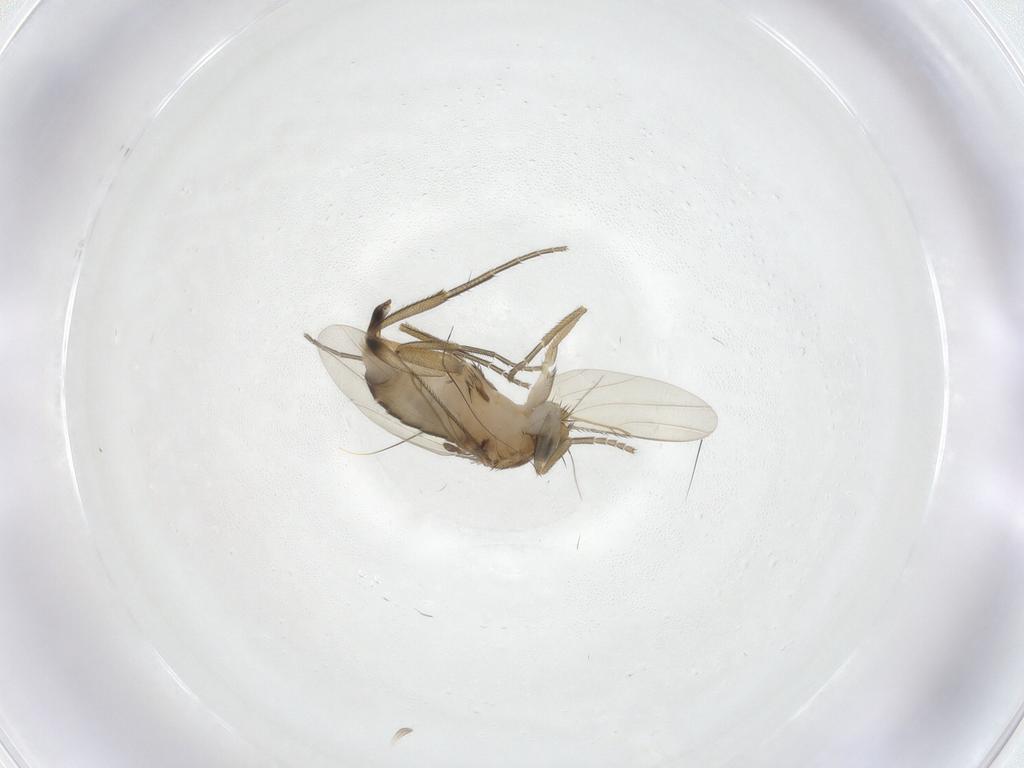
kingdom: Animalia
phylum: Arthropoda
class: Insecta
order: Diptera
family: Phoridae
